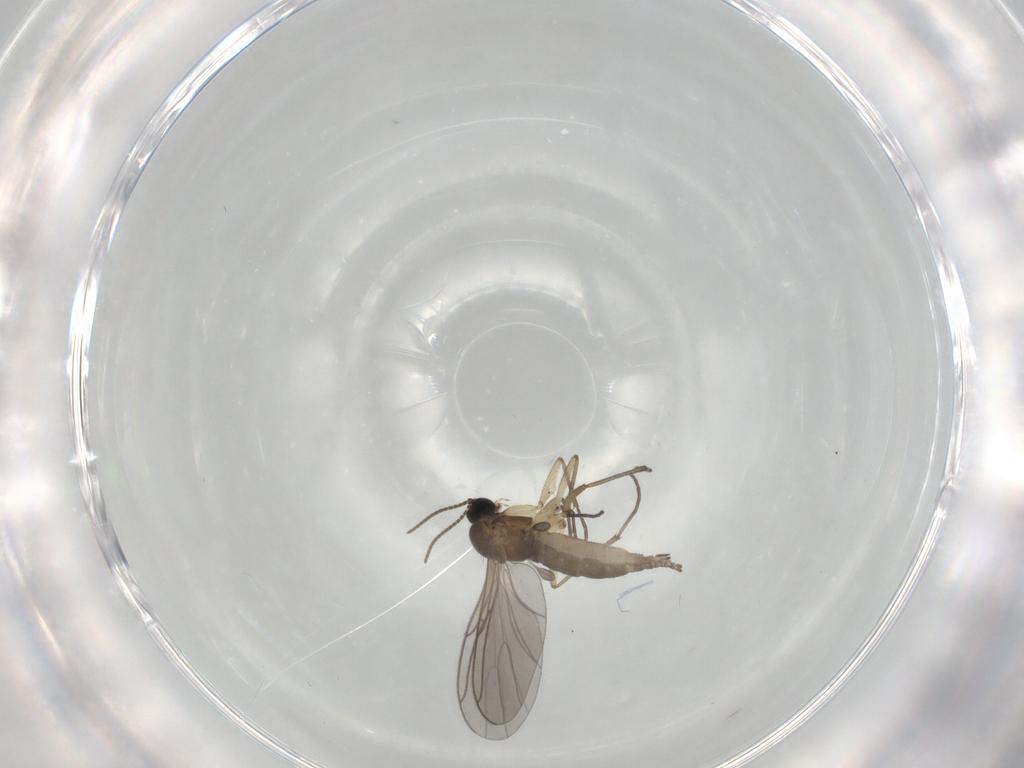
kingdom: Animalia
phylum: Arthropoda
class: Insecta
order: Diptera
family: Sciaridae
